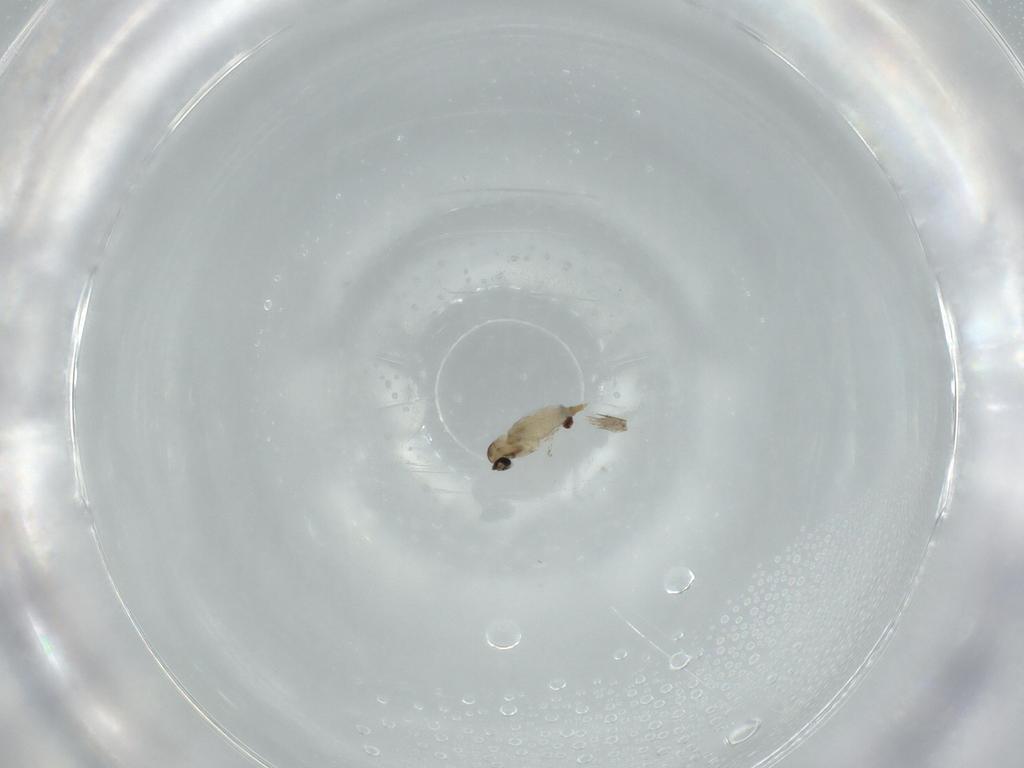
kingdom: Animalia
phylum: Arthropoda
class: Insecta
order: Diptera
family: Cecidomyiidae
